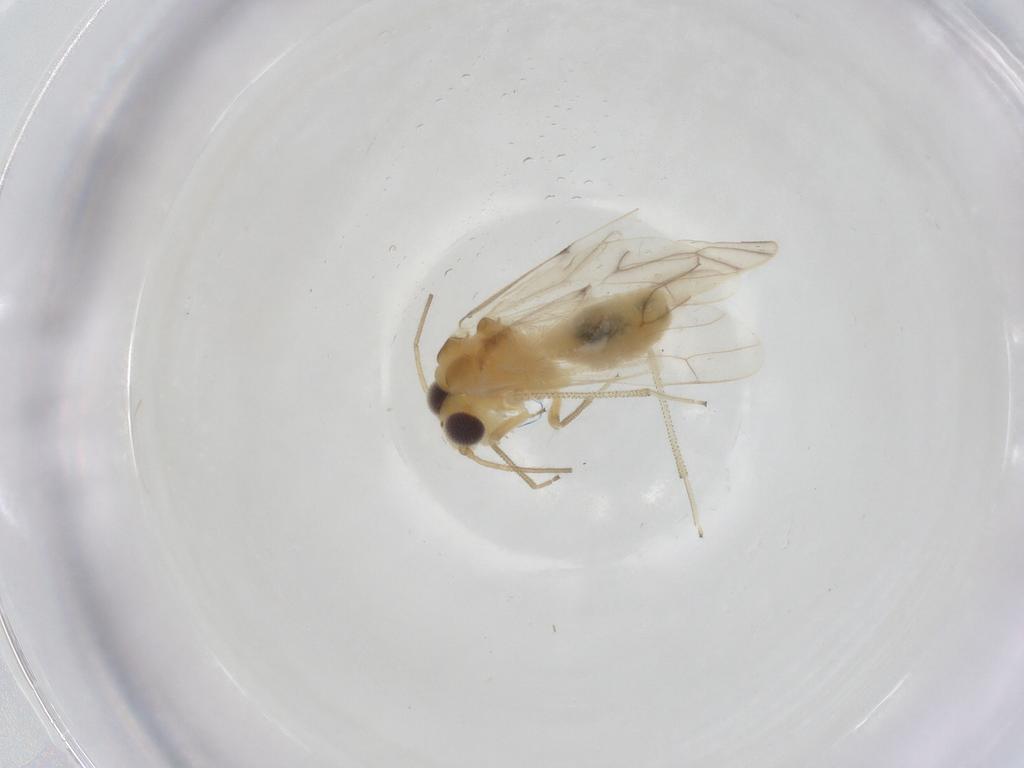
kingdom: Animalia
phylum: Arthropoda
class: Insecta
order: Psocodea
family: Caeciliusidae
